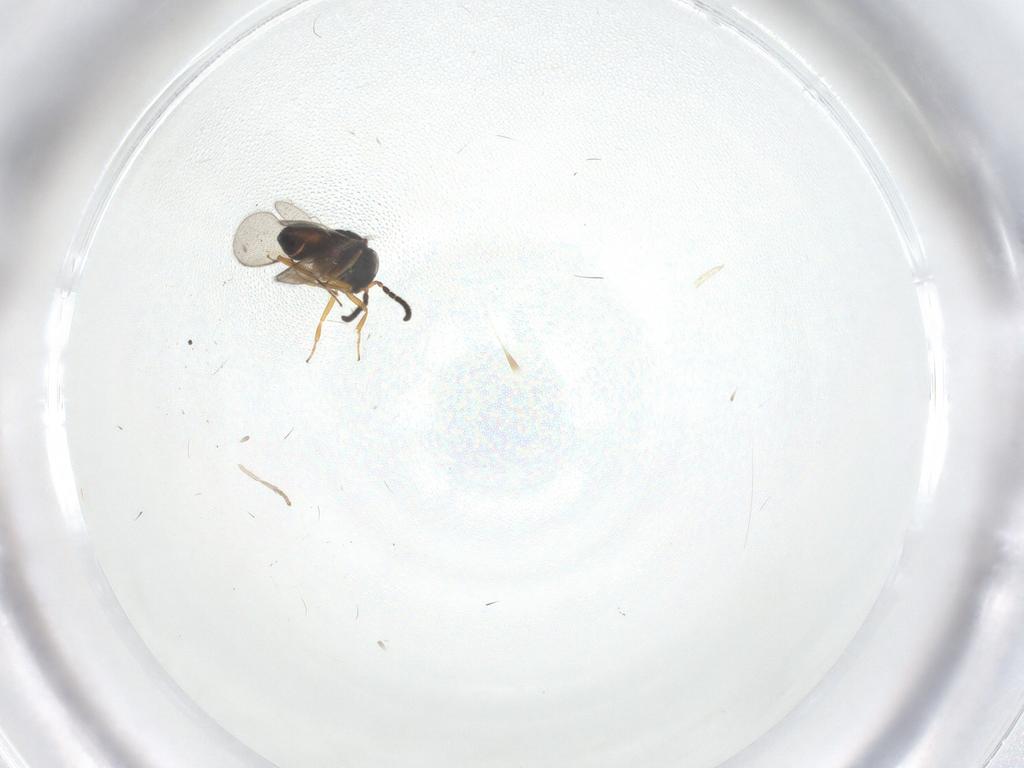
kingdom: Animalia
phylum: Arthropoda
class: Insecta
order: Hymenoptera
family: Scelionidae
